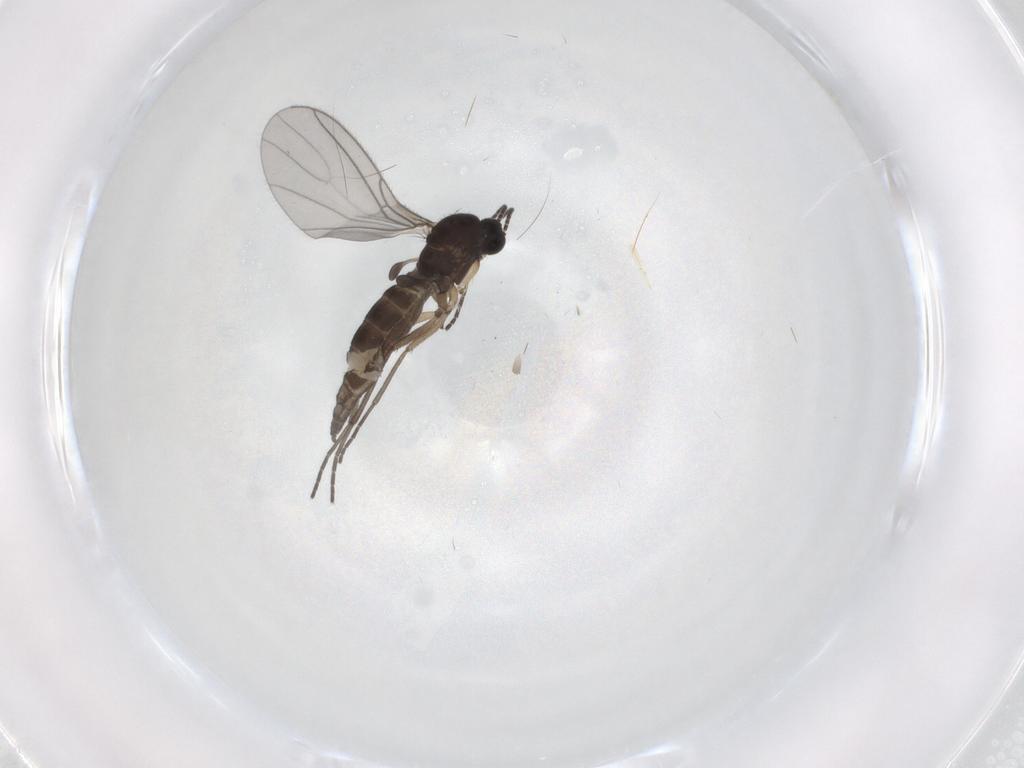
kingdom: Animalia
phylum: Arthropoda
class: Insecta
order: Diptera
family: Sciaridae
